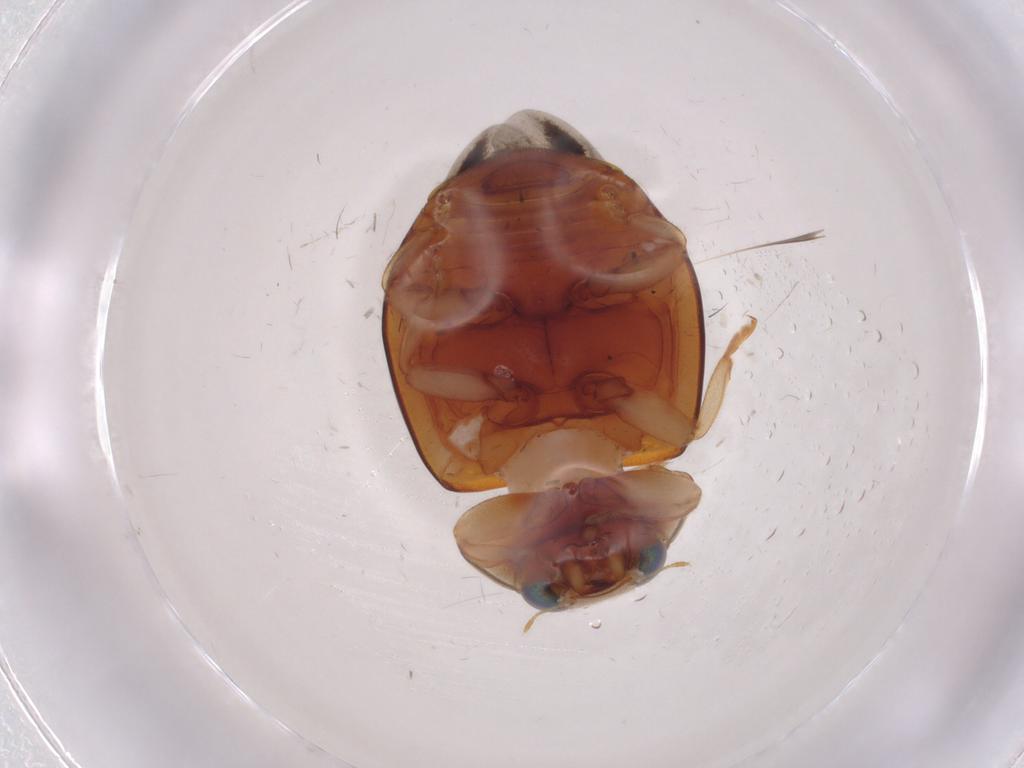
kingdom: Animalia
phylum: Arthropoda
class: Insecta
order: Coleoptera
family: Coccinellidae
